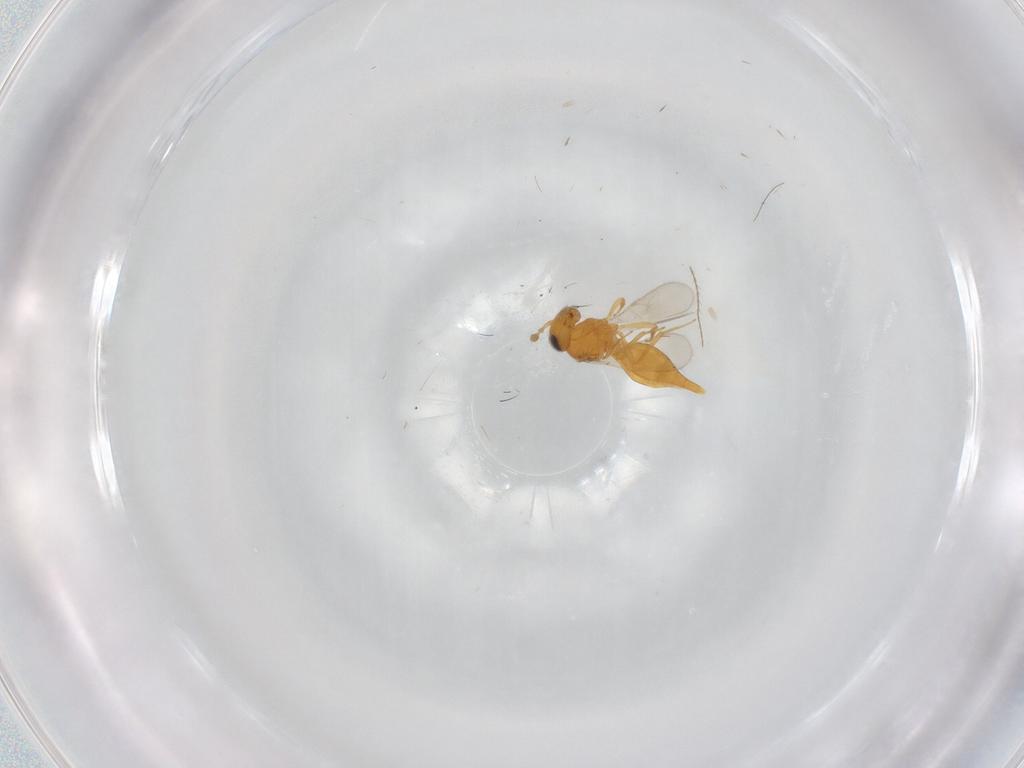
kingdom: Animalia
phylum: Arthropoda
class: Insecta
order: Hymenoptera
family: Scelionidae
